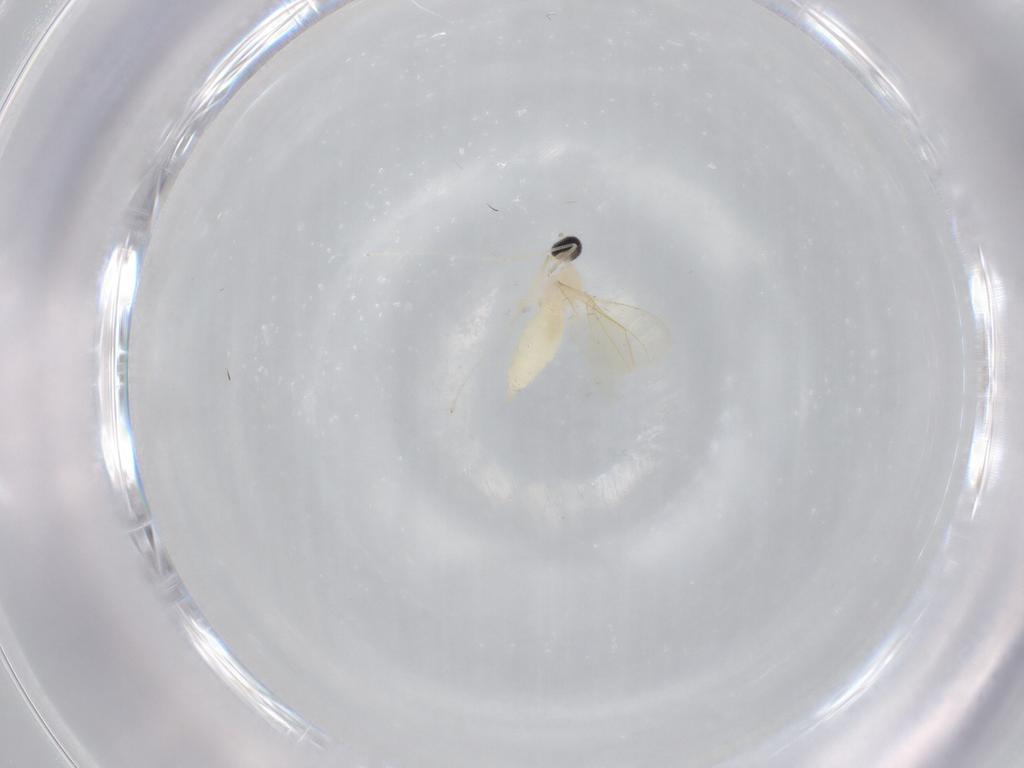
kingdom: Animalia
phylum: Arthropoda
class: Insecta
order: Diptera
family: Cecidomyiidae
